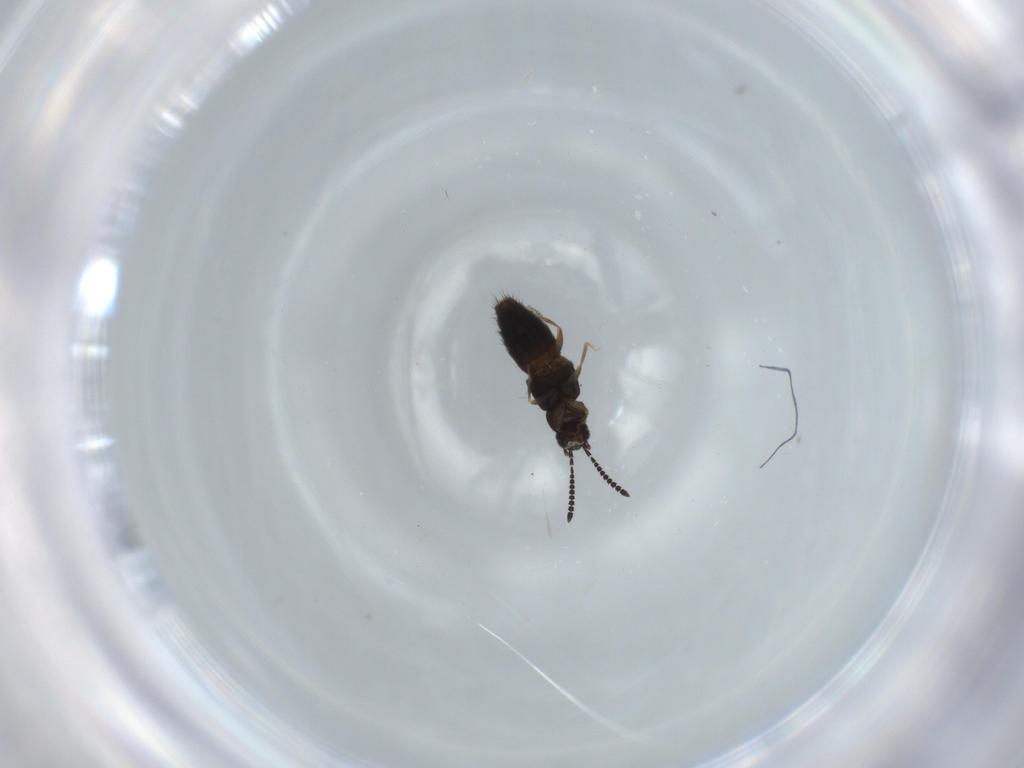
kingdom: Animalia
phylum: Arthropoda
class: Insecta
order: Coleoptera
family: Staphylinidae
